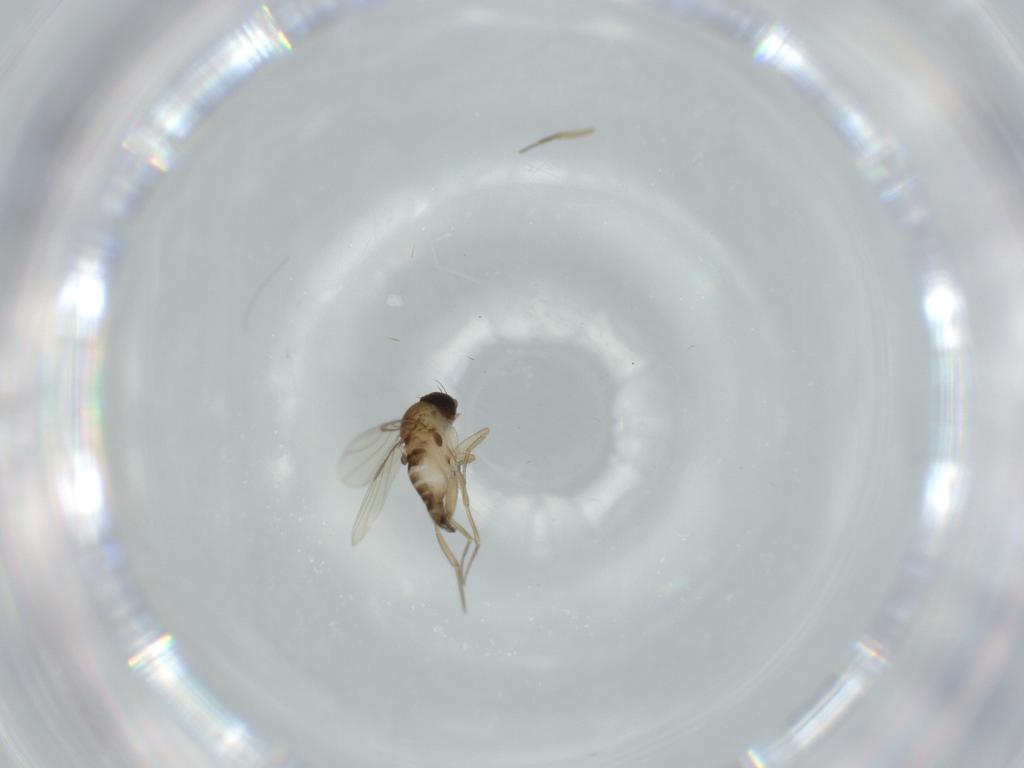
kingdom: Animalia
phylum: Arthropoda
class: Insecta
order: Diptera
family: Phoridae
